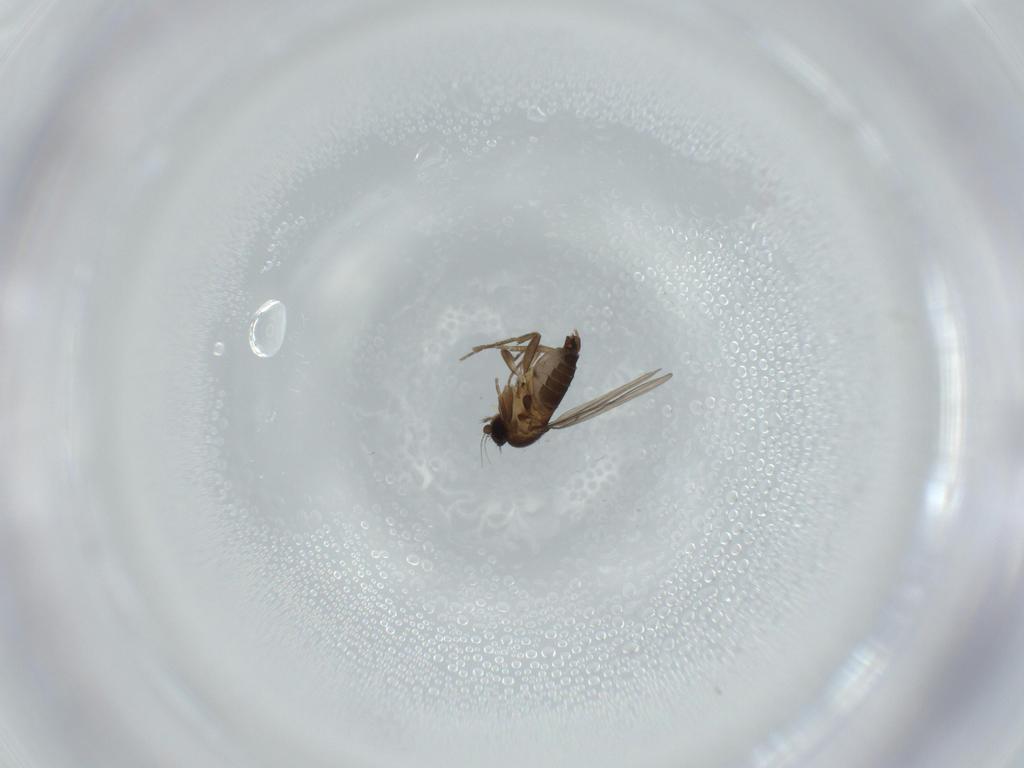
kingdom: Animalia
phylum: Arthropoda
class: Insecta
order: Diptera
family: Phoridae
